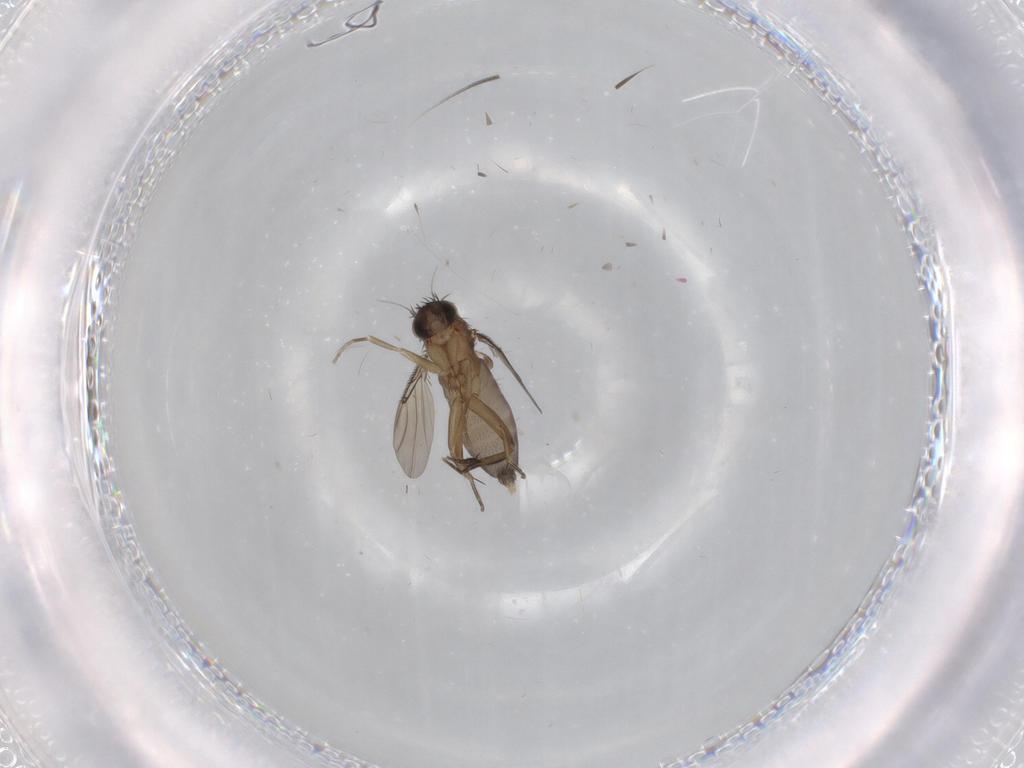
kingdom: Animalia
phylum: Arthropoda
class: Insecta
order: Diptera
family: Phoridae
